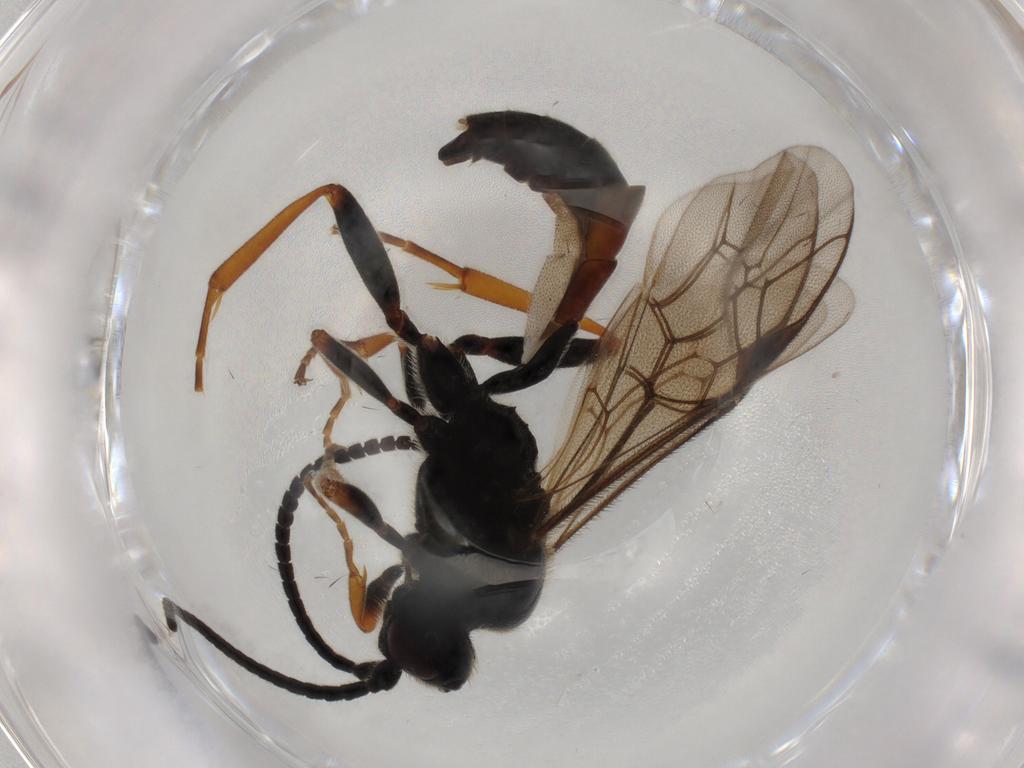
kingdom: Animalia
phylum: Arthropoda
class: Insecta
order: Hymenoptera
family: Ichneumonidae
